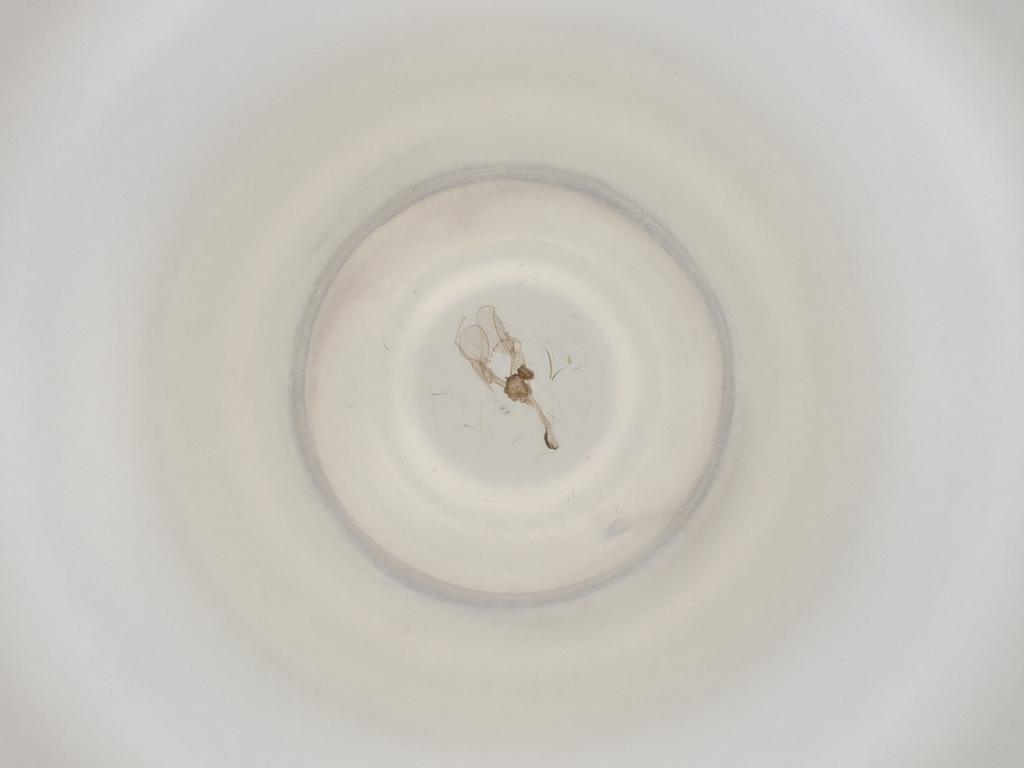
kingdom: Animalia
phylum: Arthropoda
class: Insecta
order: Diptera
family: Cecidomyiidae
